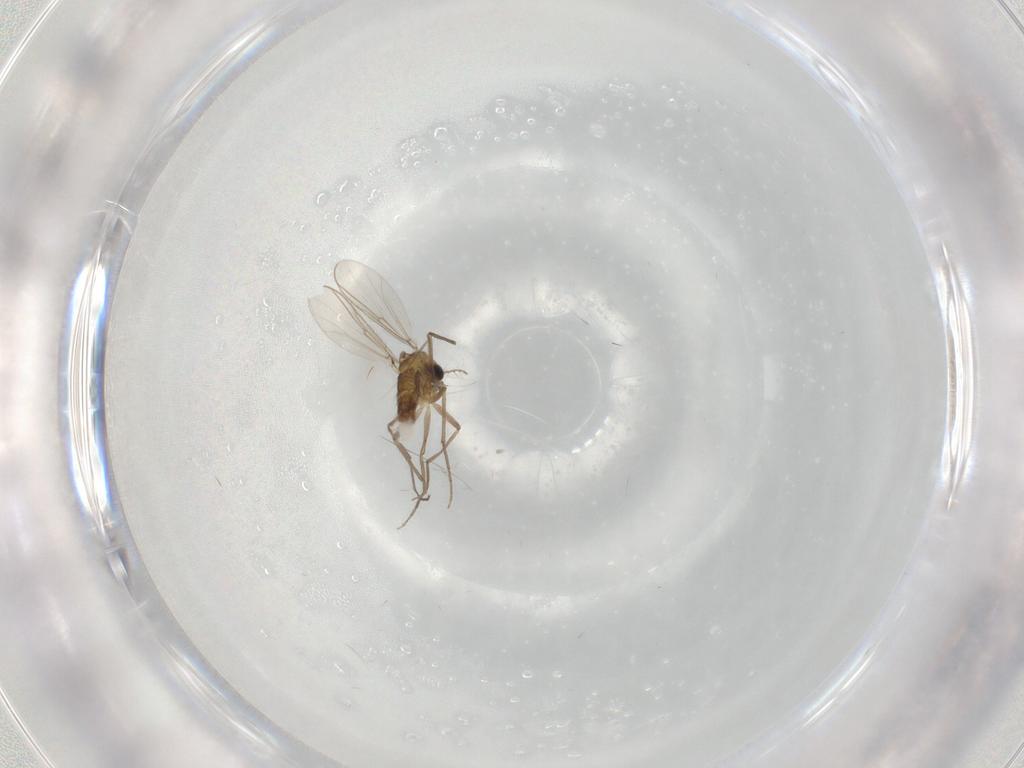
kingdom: Animalia
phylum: Arthropoda
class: Insecta
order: Diptera
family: Chironomidae
